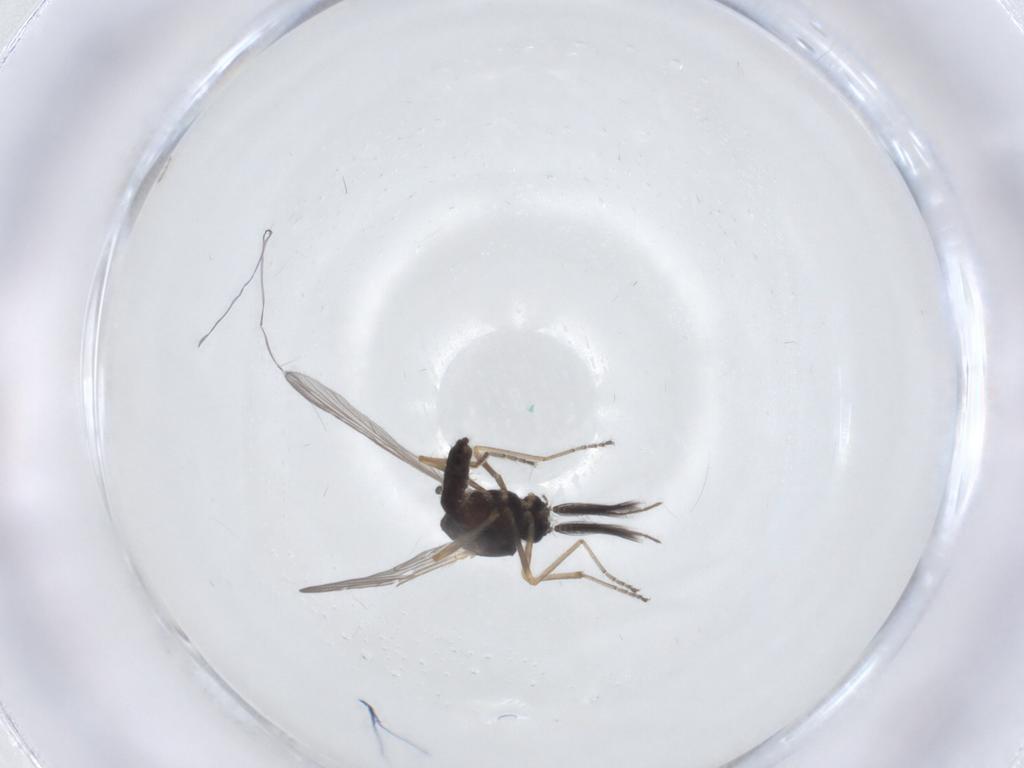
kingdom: Animalia
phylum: Arthropoda
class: Insecta
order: Diptera
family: Ceratopogonidae
